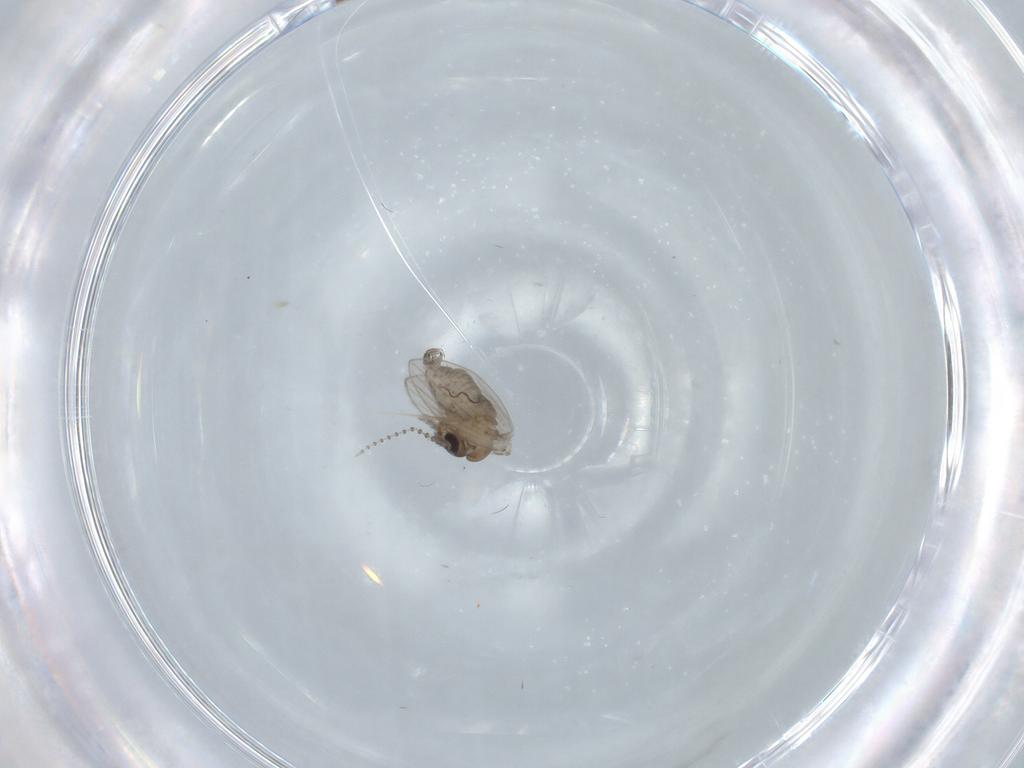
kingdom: Animalia
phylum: Arthropoda
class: Insecta
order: Diptera
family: Psychodidae
